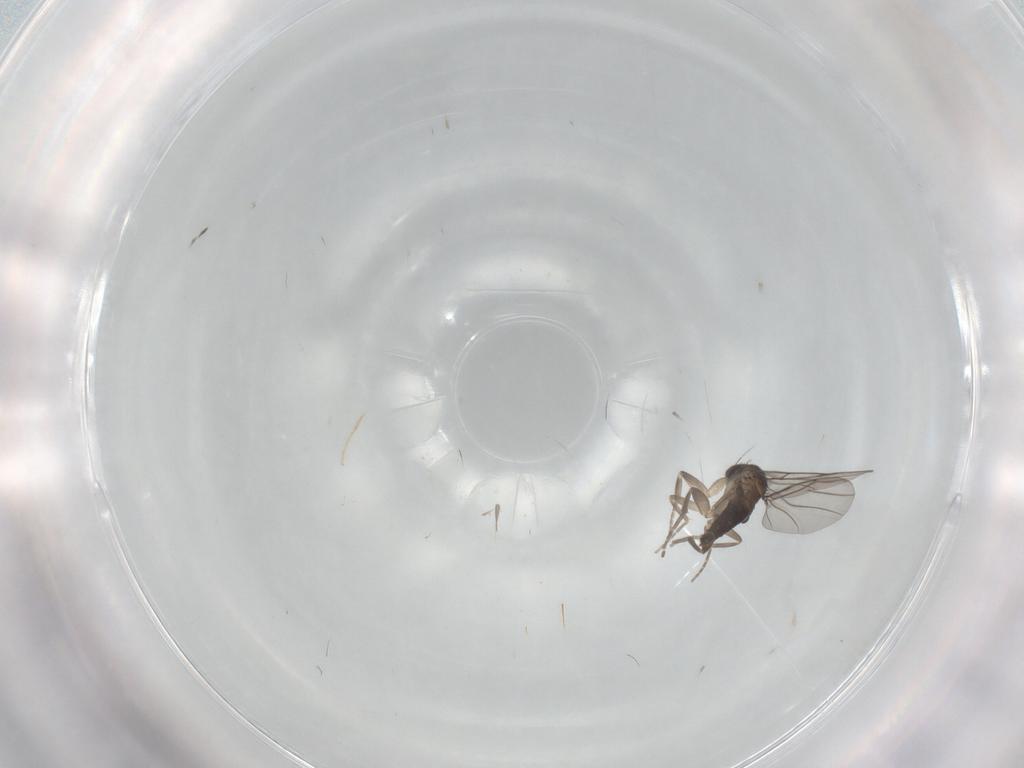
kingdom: Animalia
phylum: Arthropoda
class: Insecta
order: Diptera
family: Phoridae
